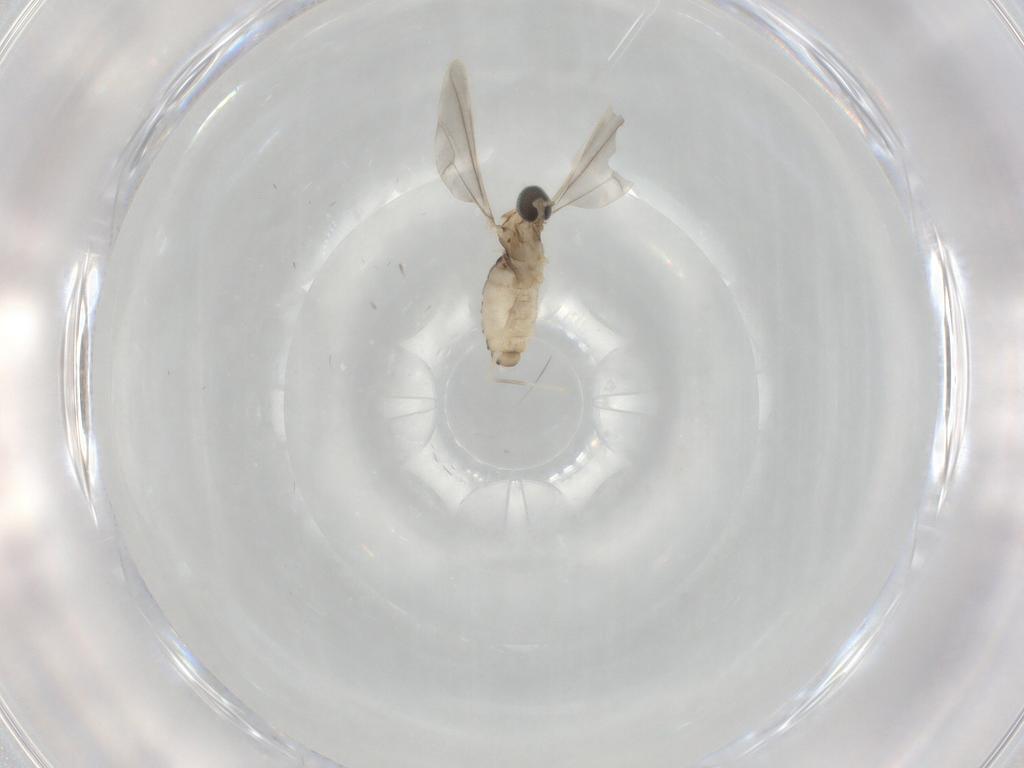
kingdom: Animalia
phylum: Arthropoda
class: Insecta
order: Diptera
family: Cecidomyiidae
